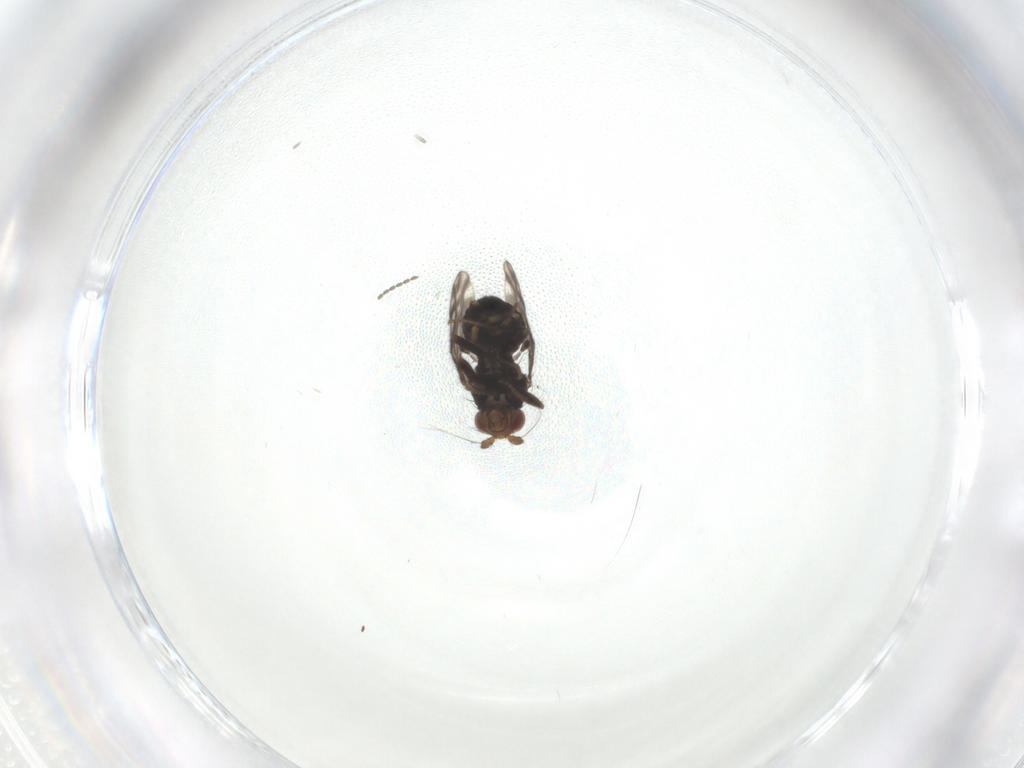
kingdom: Animalia
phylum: Arthropoda
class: Insecta
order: Diptera
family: Sphaeroceridae
